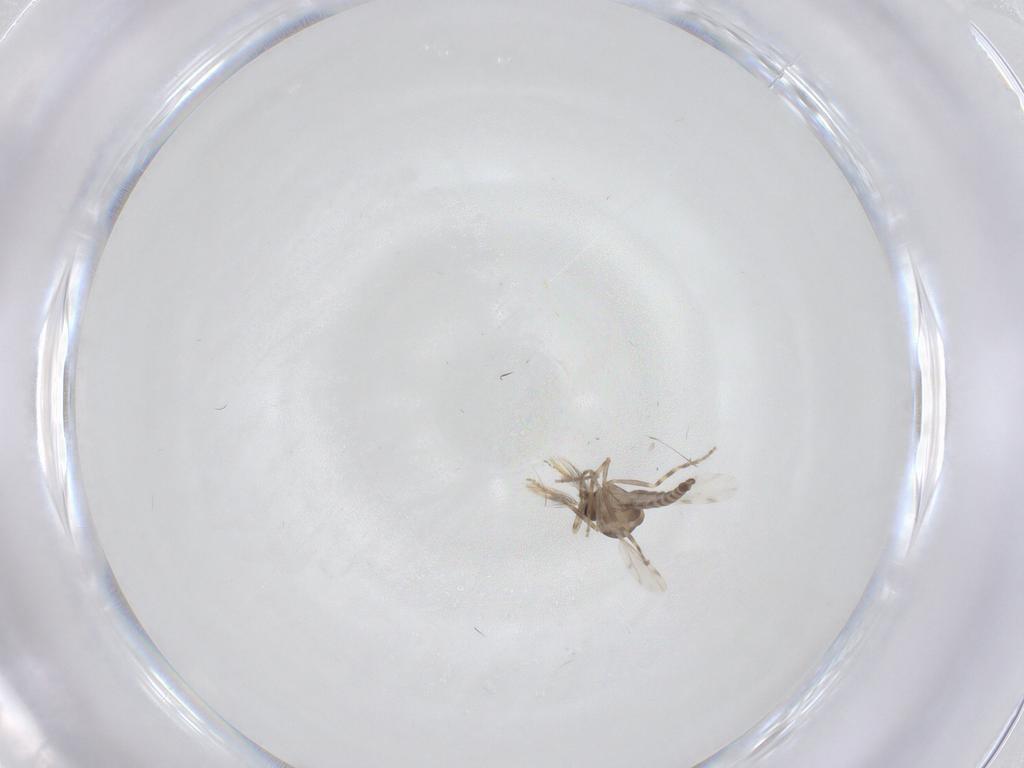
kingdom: Animalia
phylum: Arthropoda
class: Insecta
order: Diptera
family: Ceratopogonidae
